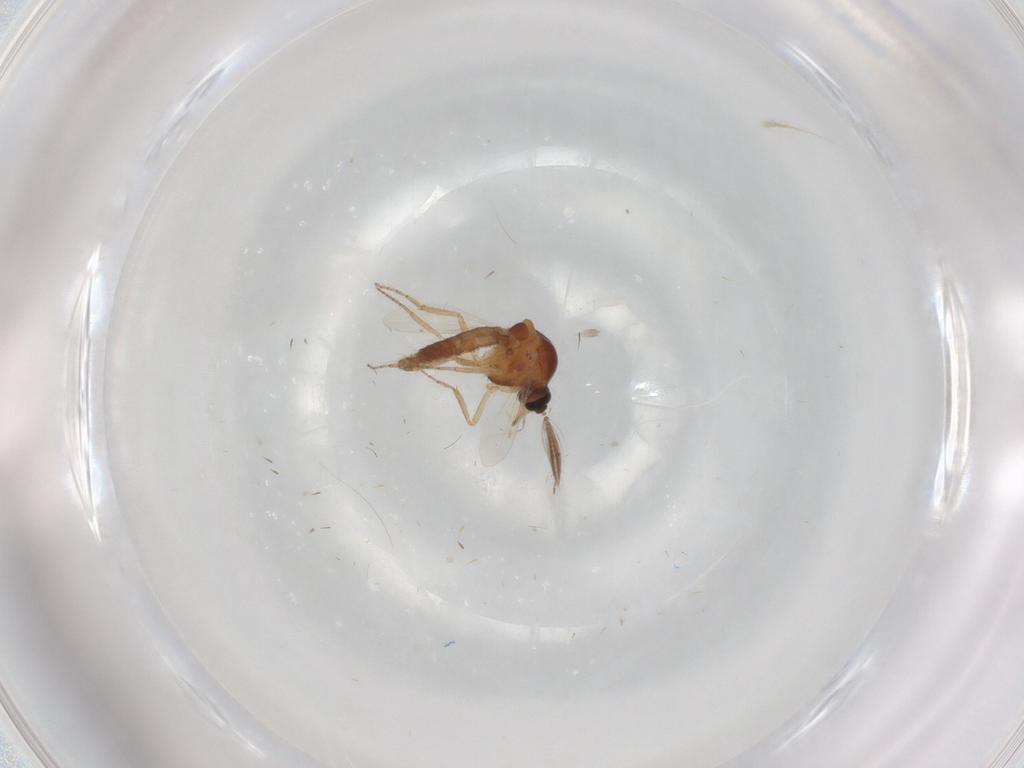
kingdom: Animalia
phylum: Arthropoda
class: Insecta
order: Diptera
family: Ceratopogonidae
